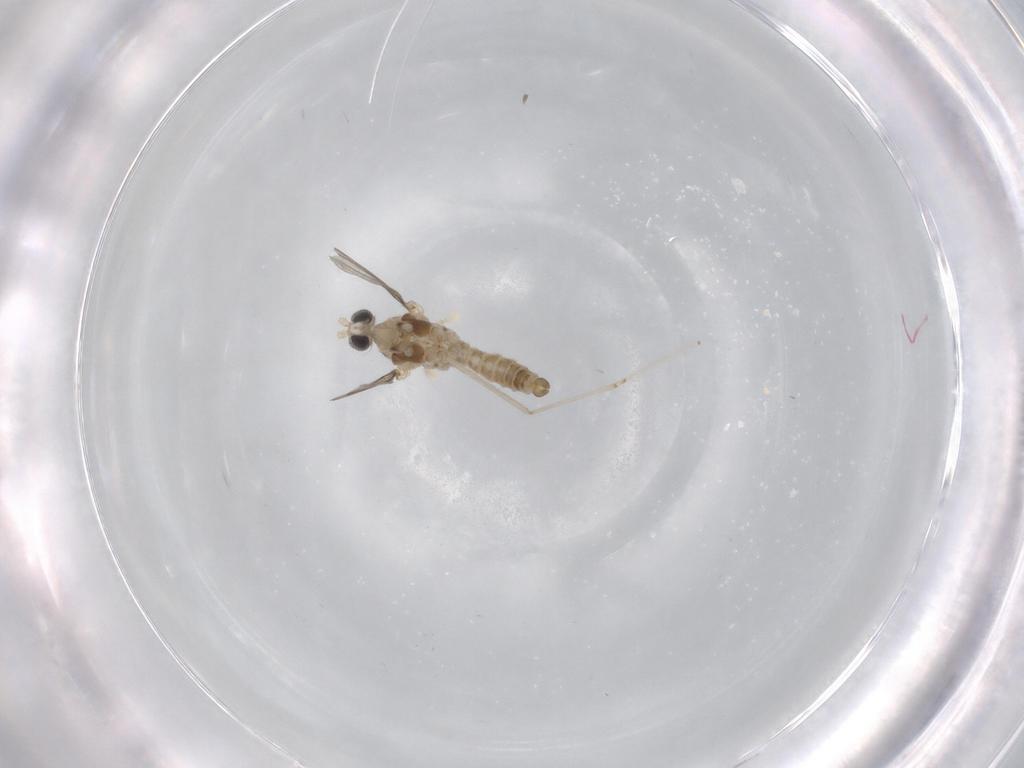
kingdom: Animalia
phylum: Arthropoda
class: Insecta
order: Diptera
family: Cecidomyiidae
